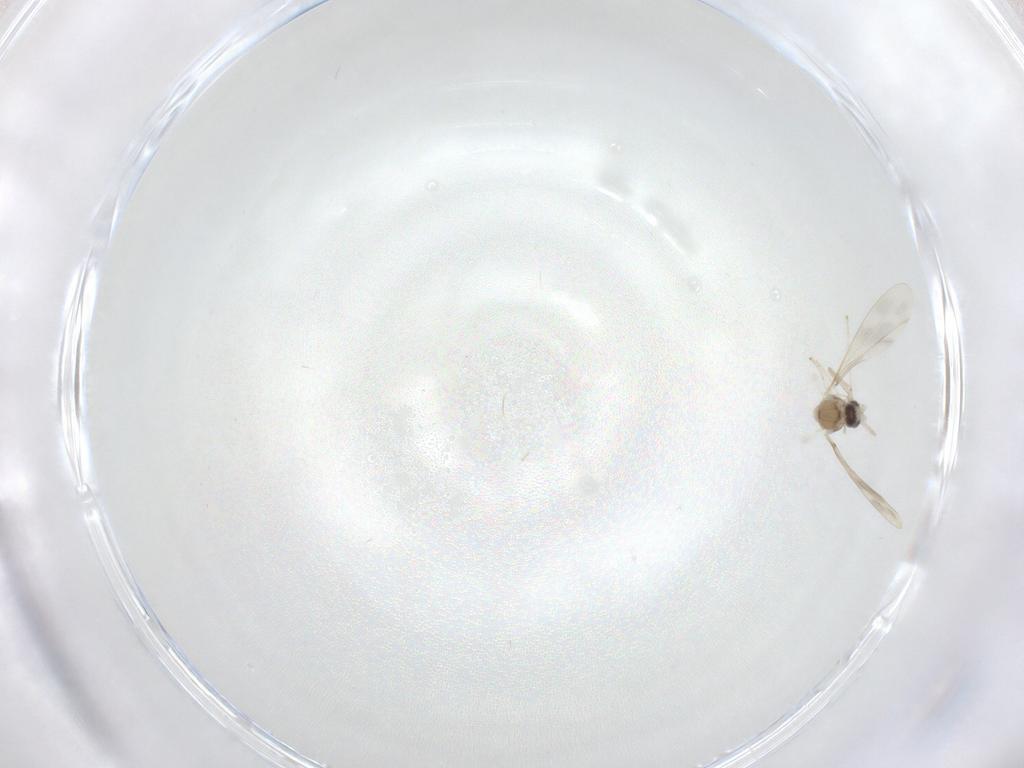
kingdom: Animalia
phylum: Arthropoda
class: Insecta
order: Diptera
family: Cecidomyiidae
